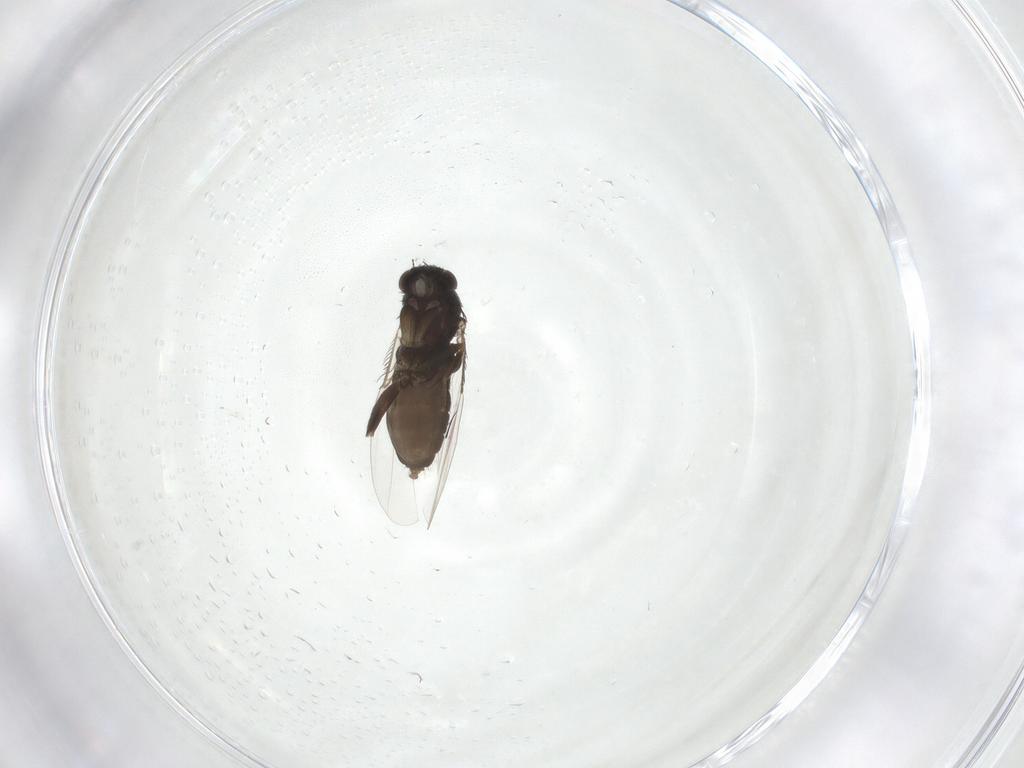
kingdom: Animalia
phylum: Arthropoda
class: Insecta
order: Diptera
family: Phoridae
